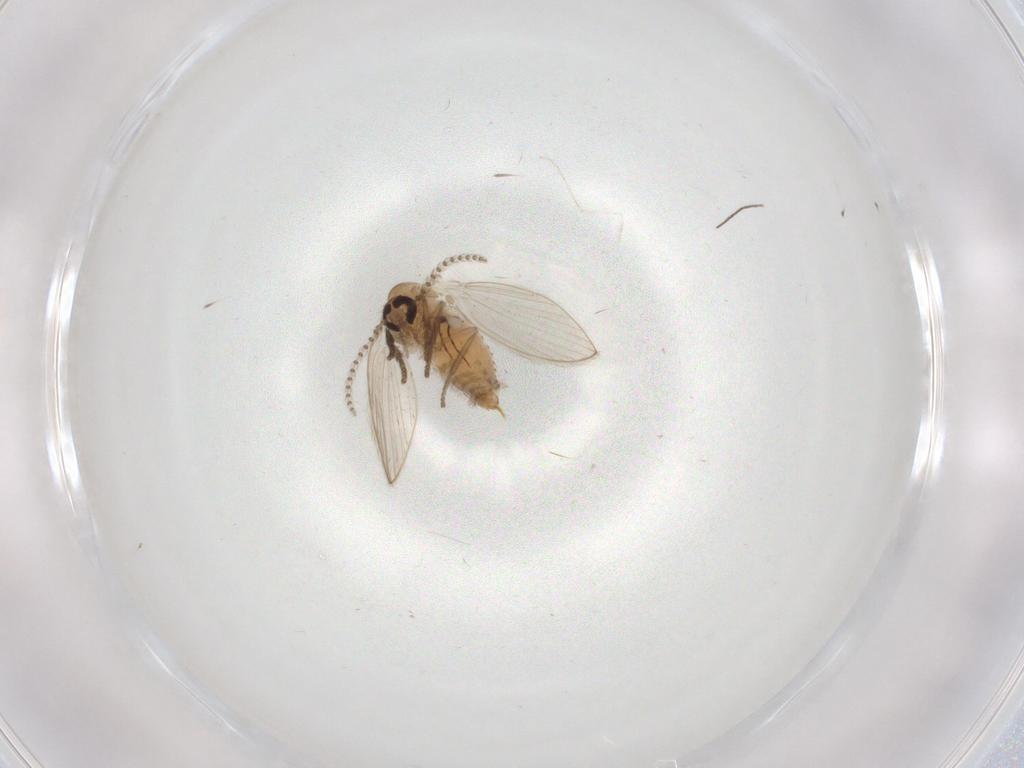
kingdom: Animalia
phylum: Arthropoda
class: Insecta
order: Diptera
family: Psychodidae
